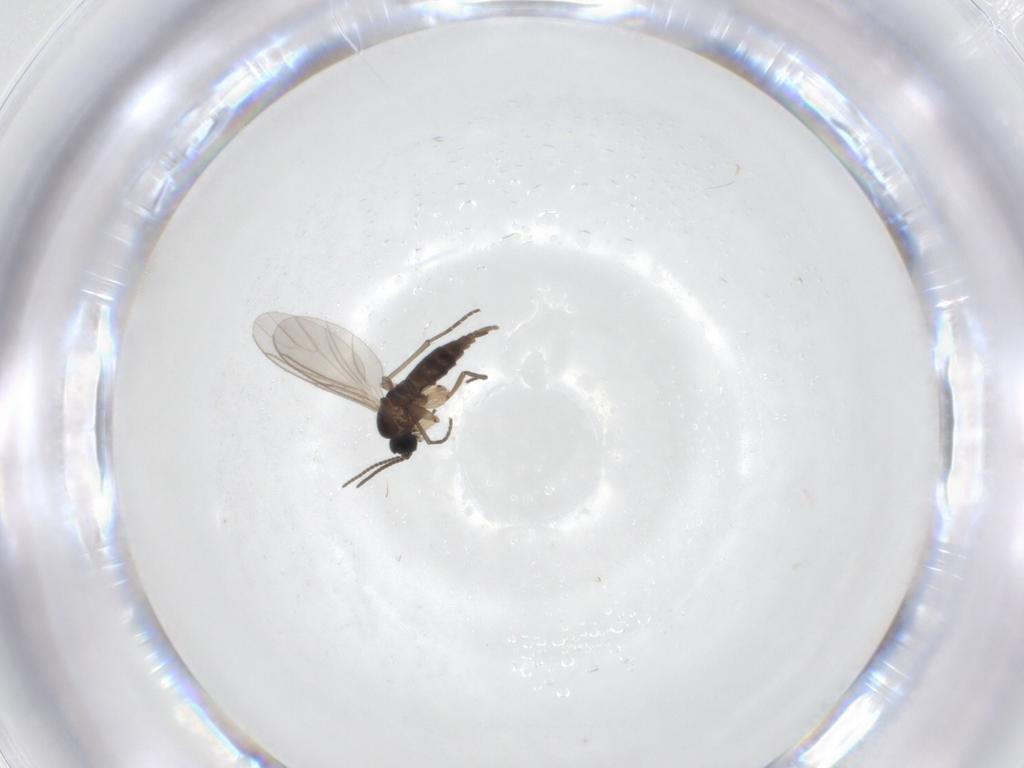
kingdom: Animalia
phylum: Arthropoda
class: Insecta
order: Diptera
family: Sciaridae
